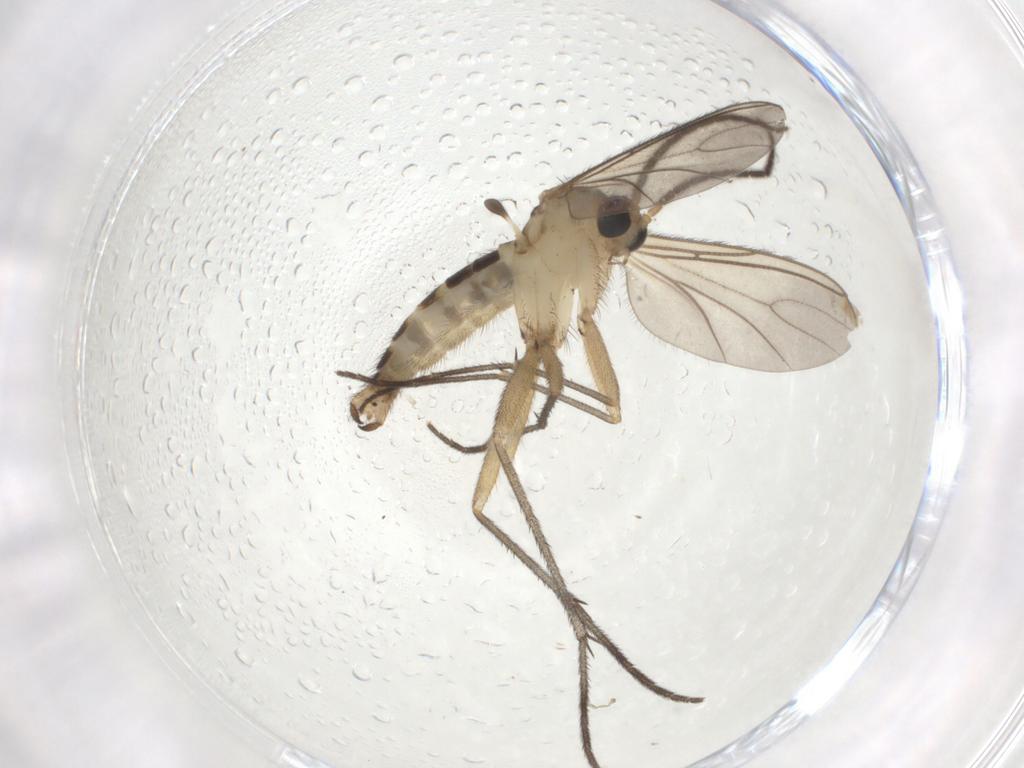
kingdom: Animalia
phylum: Arthropoda
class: Insecta
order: Diptera
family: Sciaridae
